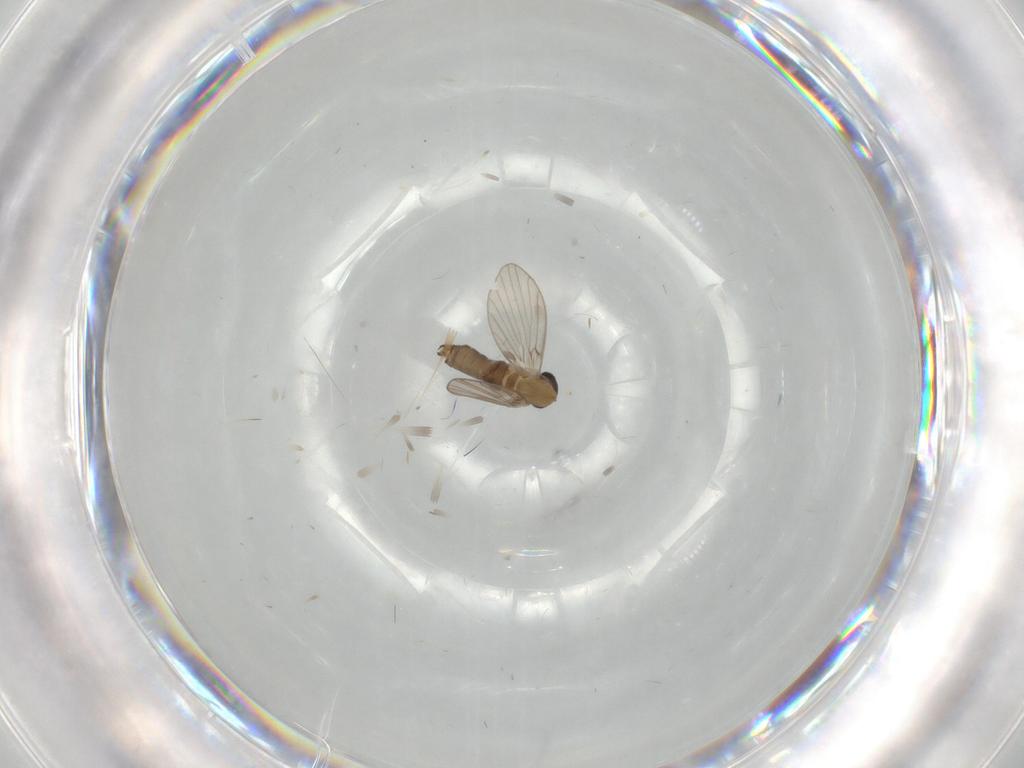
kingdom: Animalia
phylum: Arthropoda
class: Insecta
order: Diptera
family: Psychodidae
